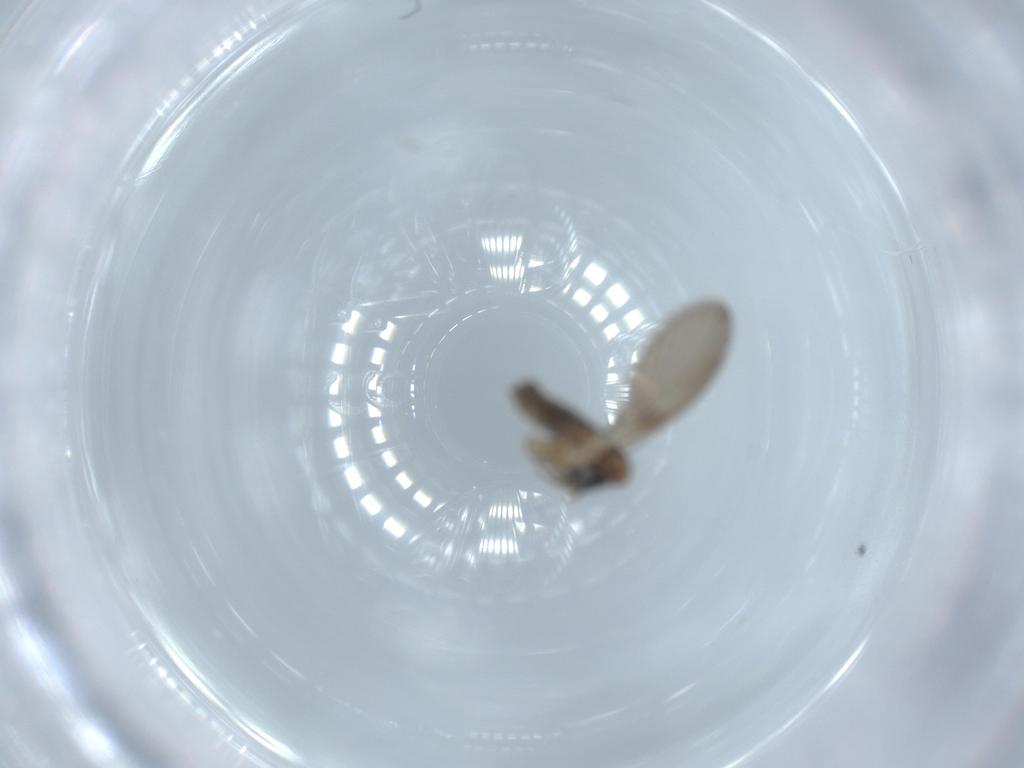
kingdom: Animalia
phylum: Arthropoda
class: Insecta
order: Diptera
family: Psychodidae
